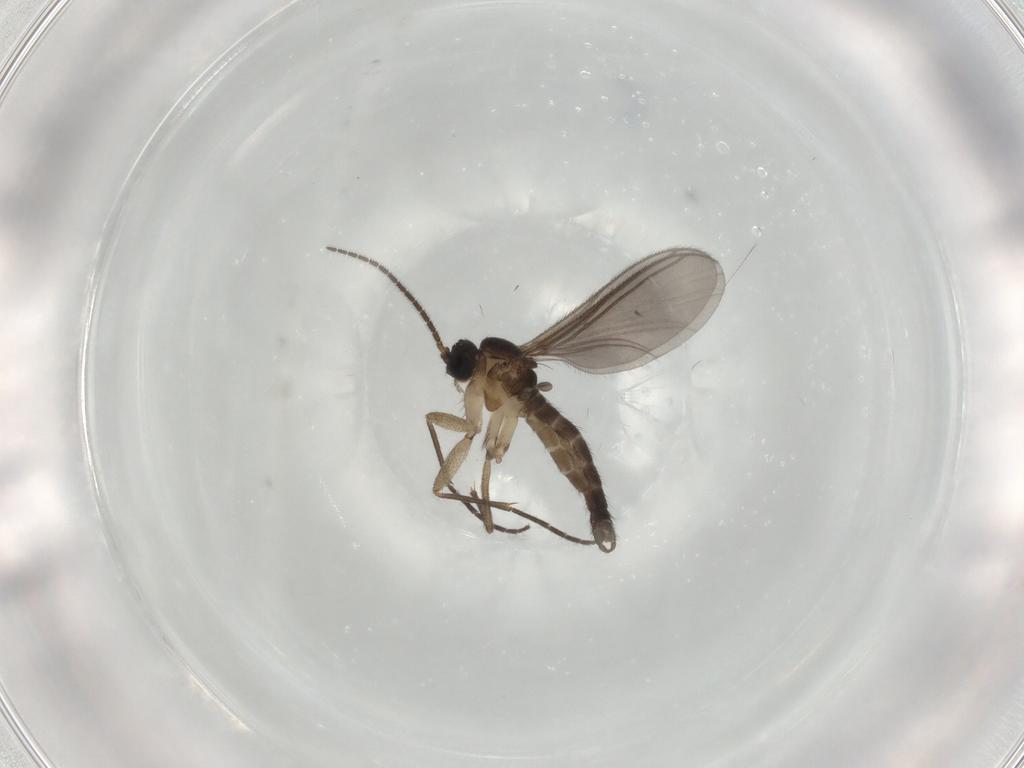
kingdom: Animalia
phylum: Arthropoda
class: Insecta
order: Diptera
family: Sciaridae
